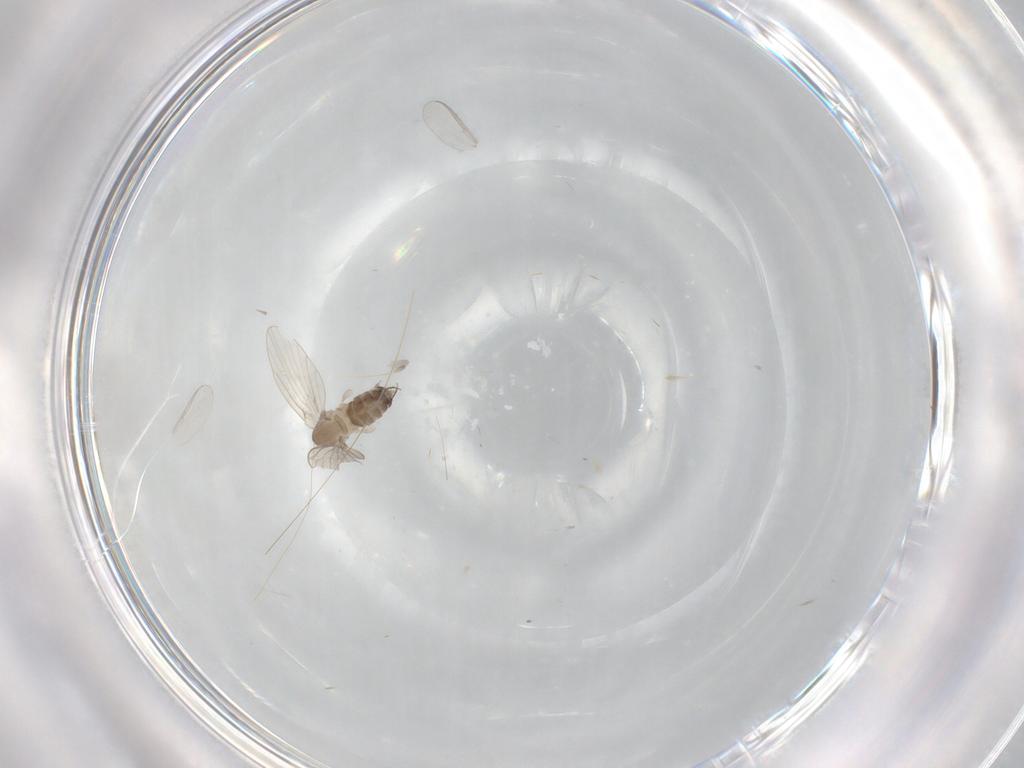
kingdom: Animalia
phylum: Arthropoda
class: Insecta
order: Diptera
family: Chironomidae
